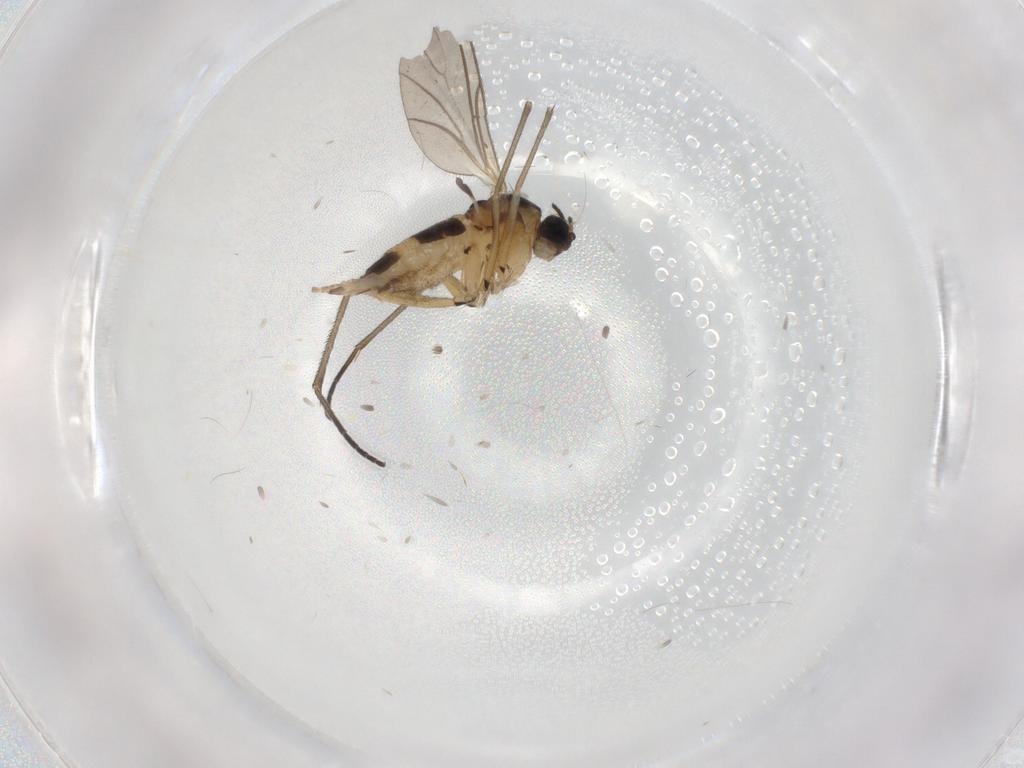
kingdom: Animalia
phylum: Arthropoda
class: Insecta
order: Diptera
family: Cecidomyiidae
